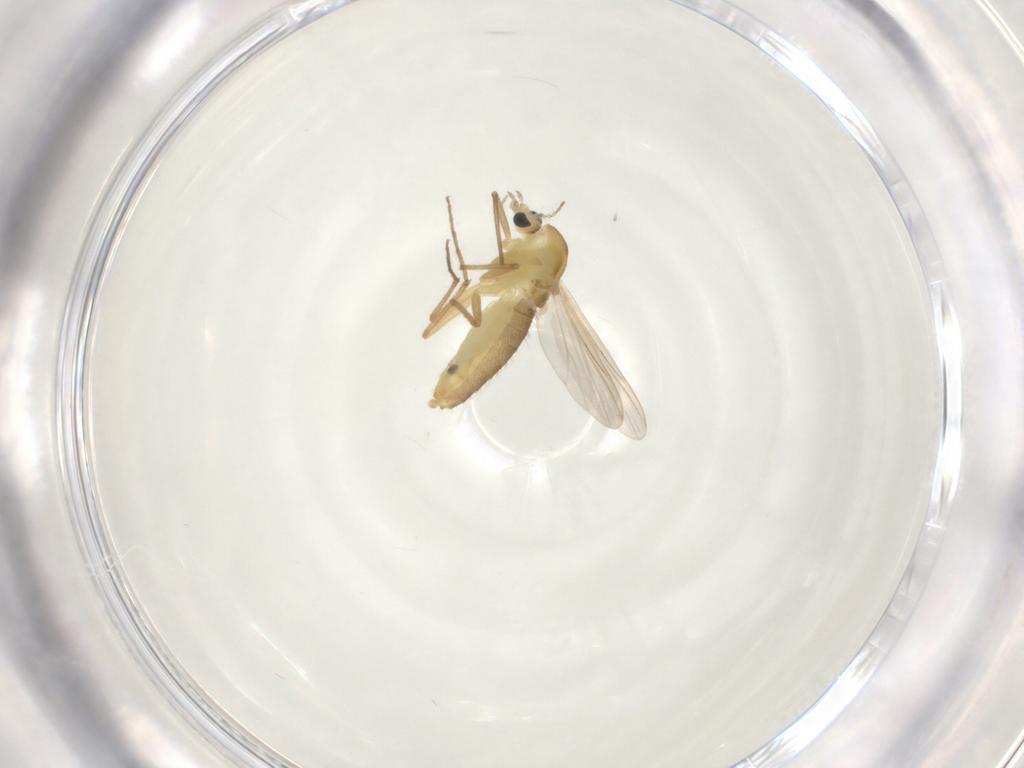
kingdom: Animalia
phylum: Arthropoda
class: Insecta
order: Diptera
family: Chironomidae
